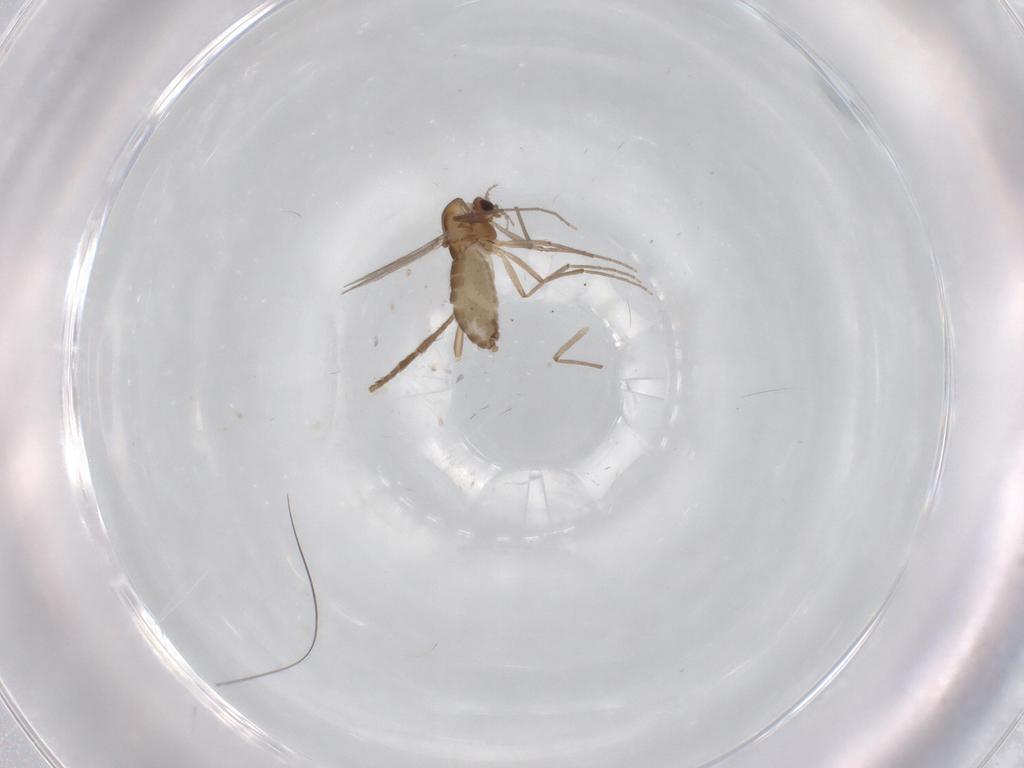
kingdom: Animalia
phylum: Arthropoda
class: Insecta
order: Diptera
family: Chironomidae
